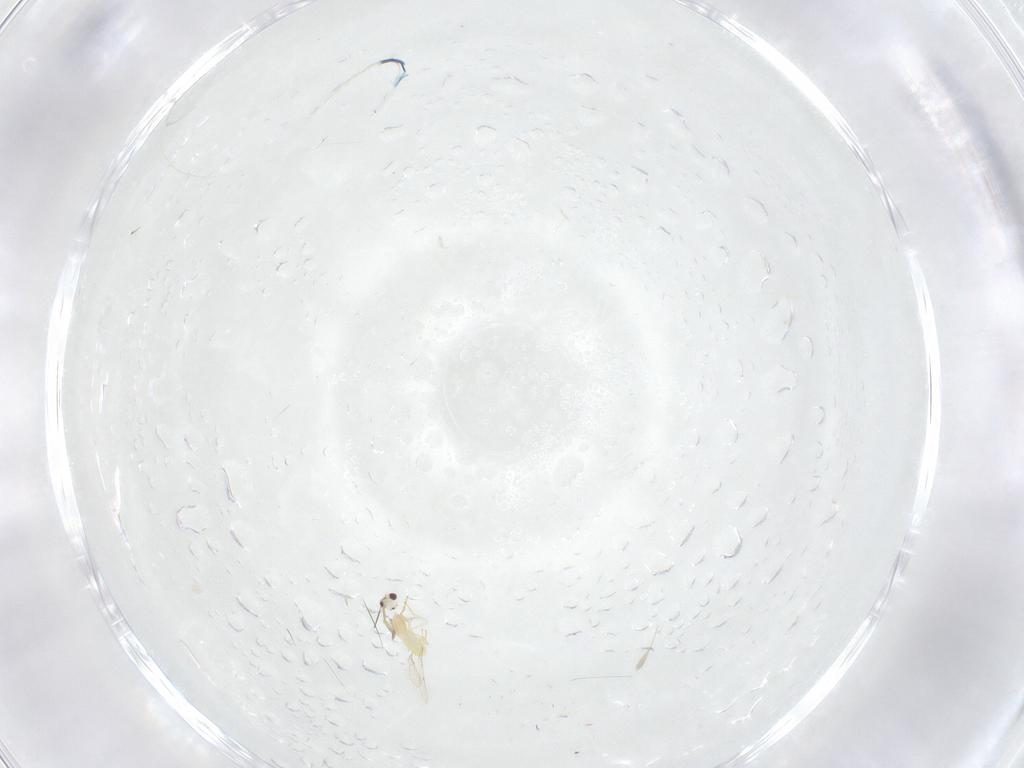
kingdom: Animalia
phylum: Arthropoda
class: Insecta
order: Hymenoptera
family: Mymaridae
